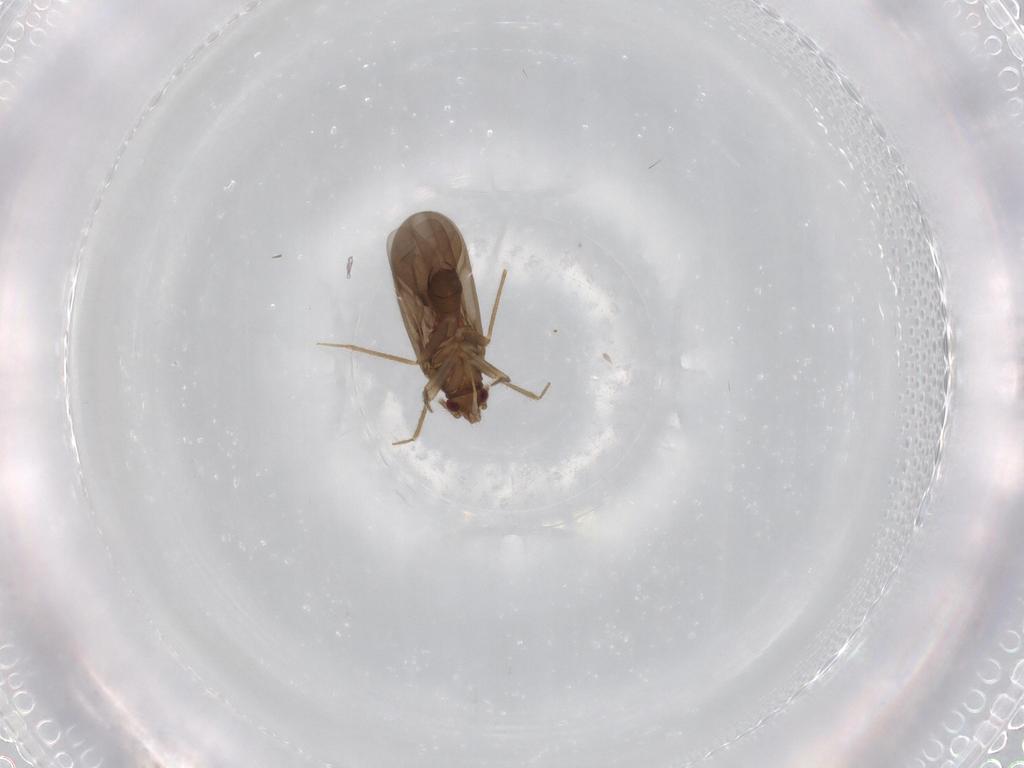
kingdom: Animalia
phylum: Arthropoda
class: Insecta
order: Hemiptera
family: Ceratocombidae
